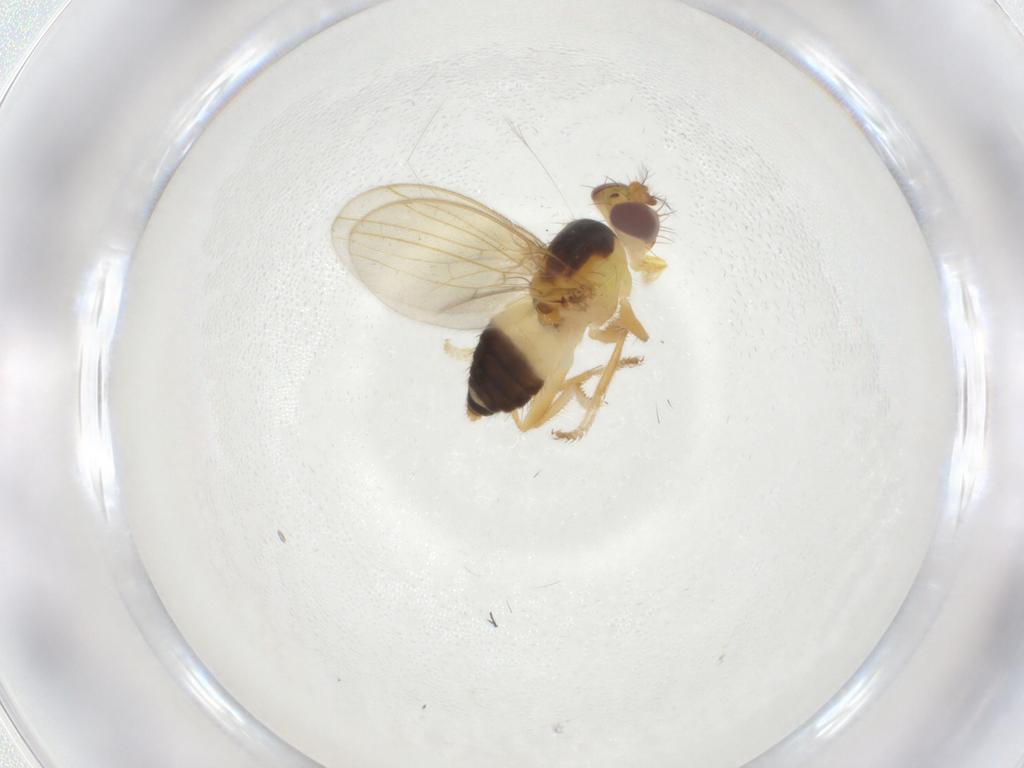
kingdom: Animalia
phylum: Arthropoda
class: Insecta
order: Diptera
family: Periscelididae
